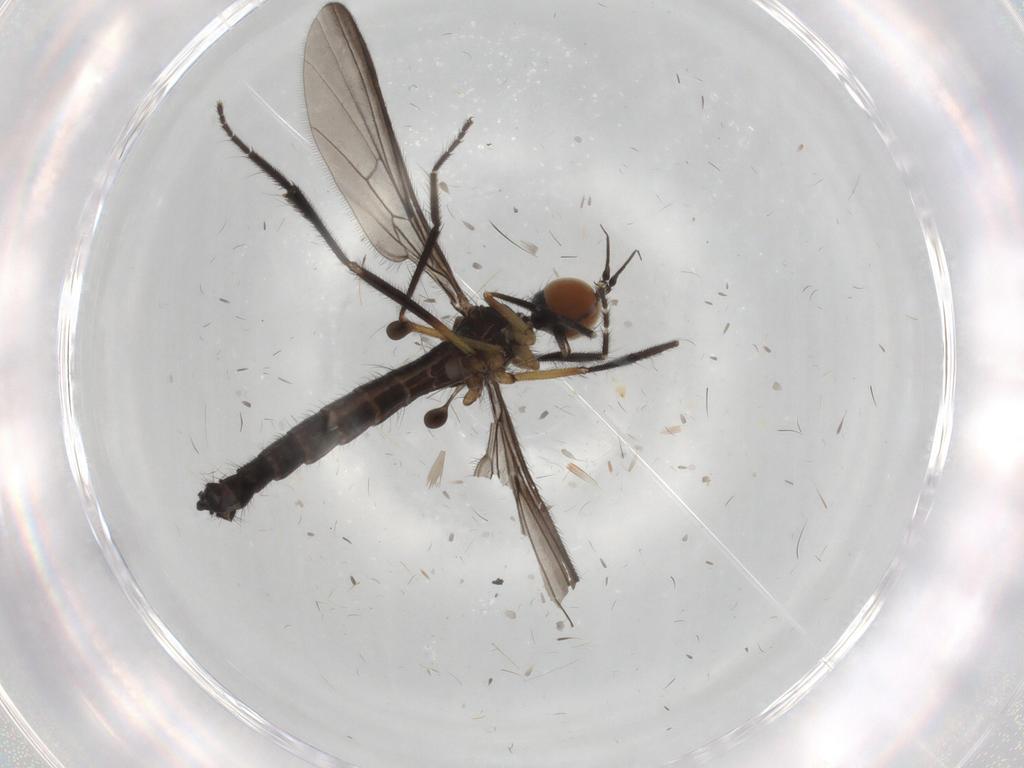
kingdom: Animalia
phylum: Arthropoda
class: Insecta
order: Diptera
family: Empididae
